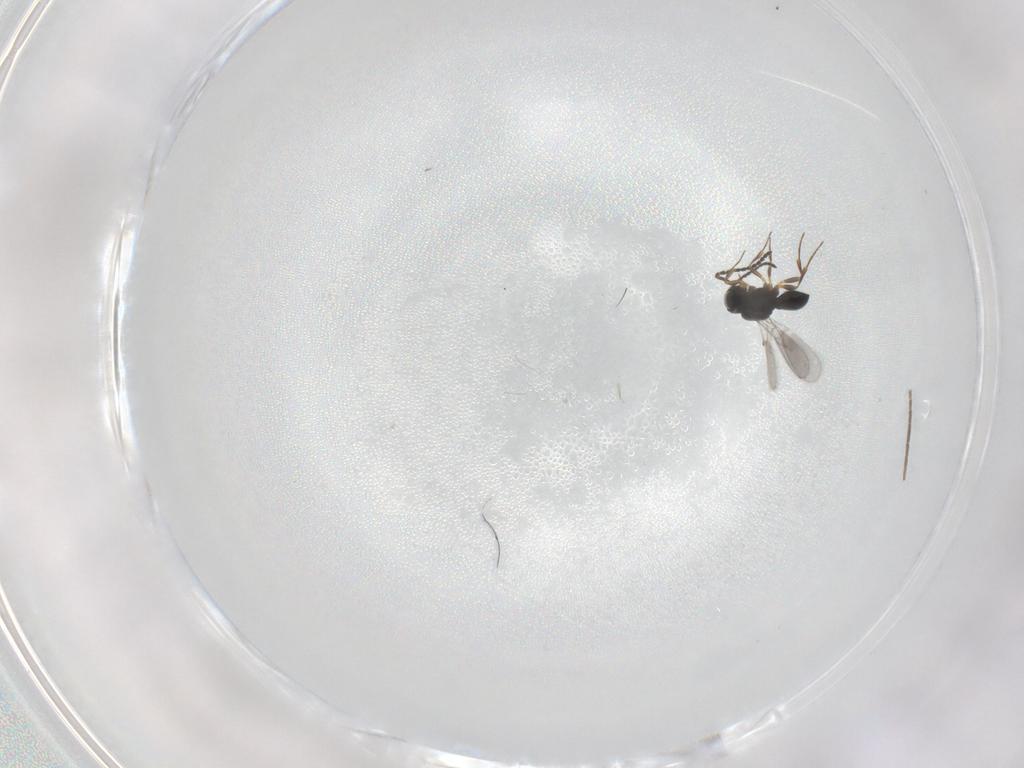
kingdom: Animalia
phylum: Arthropoda
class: Insecta
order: Hymenoptera
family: Scelionidae
